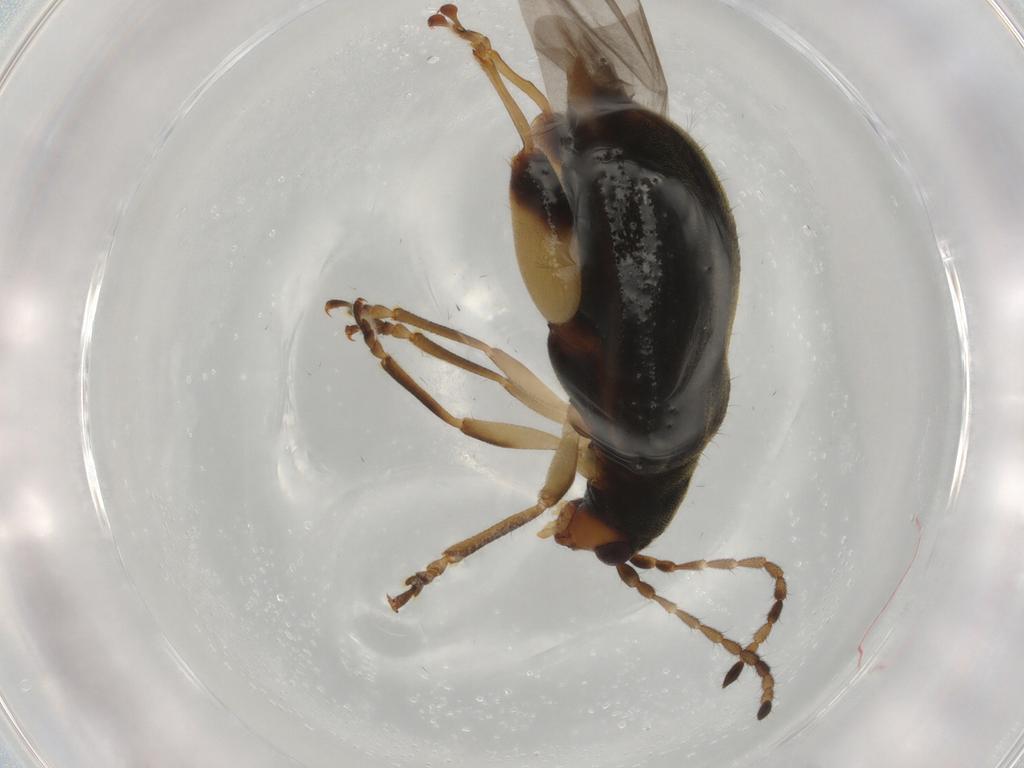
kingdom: Animalia
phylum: Arthropoda
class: Insecta
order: Coleoptera
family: Chrysomelidae
